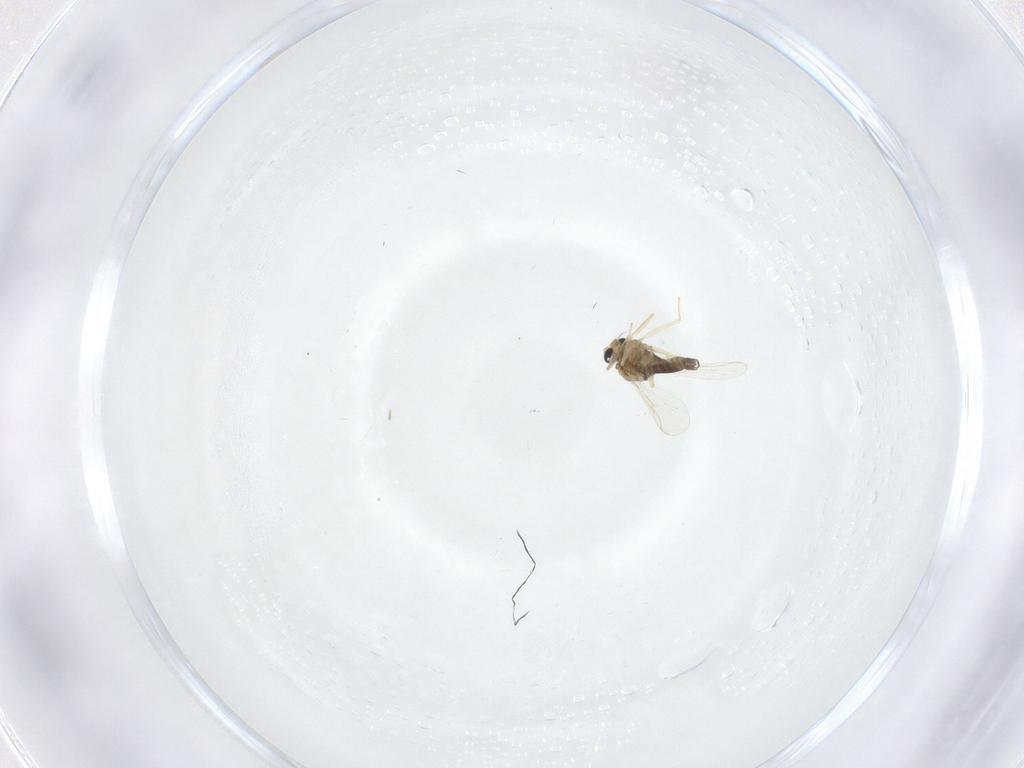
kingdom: Animalia
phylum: Arthropoda
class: Insecta
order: Diptera
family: Chironomidae
